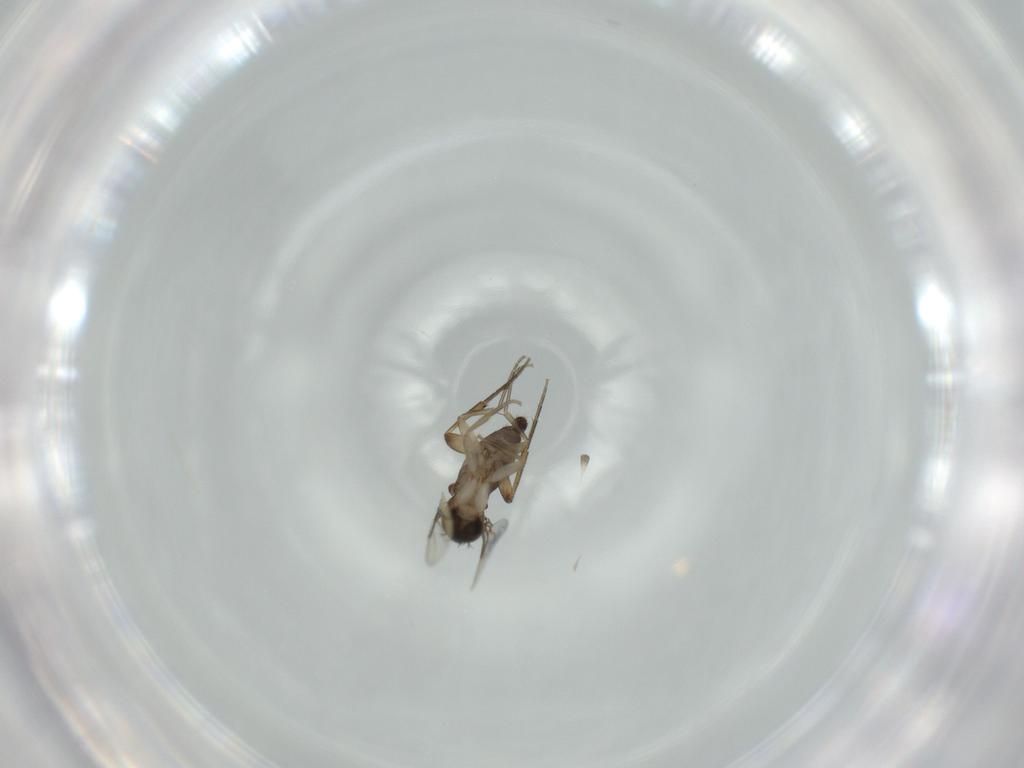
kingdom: Animalia
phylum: Arthropoda
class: Insecta
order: Diptera
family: Phoridae
